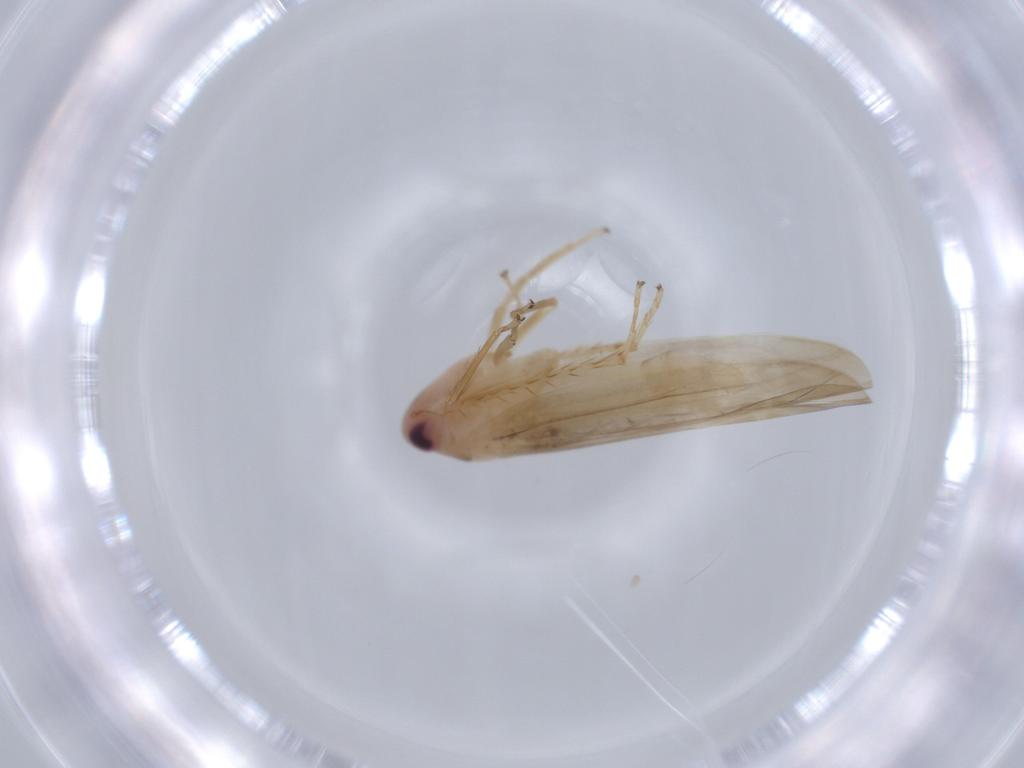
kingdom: Animalia
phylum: Arthropoda
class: Insecta
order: Hemiptera
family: Cicadellidae
